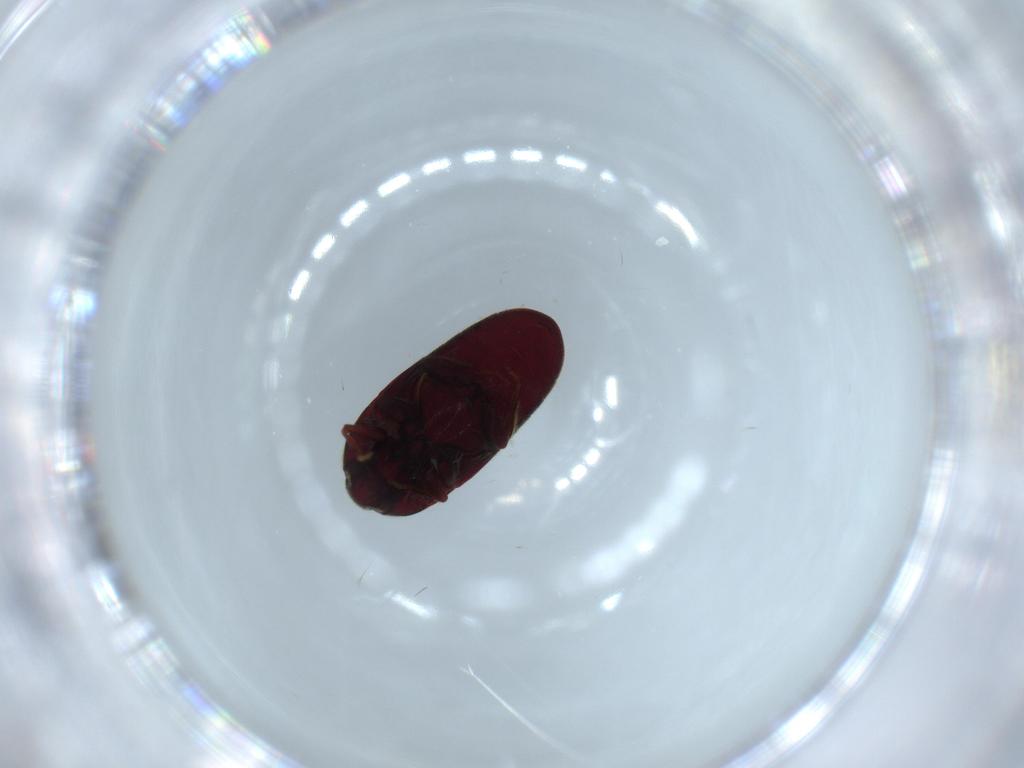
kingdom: Animalia
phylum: Arthropoda
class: Insecta
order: Coleoptera
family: Throscidae
